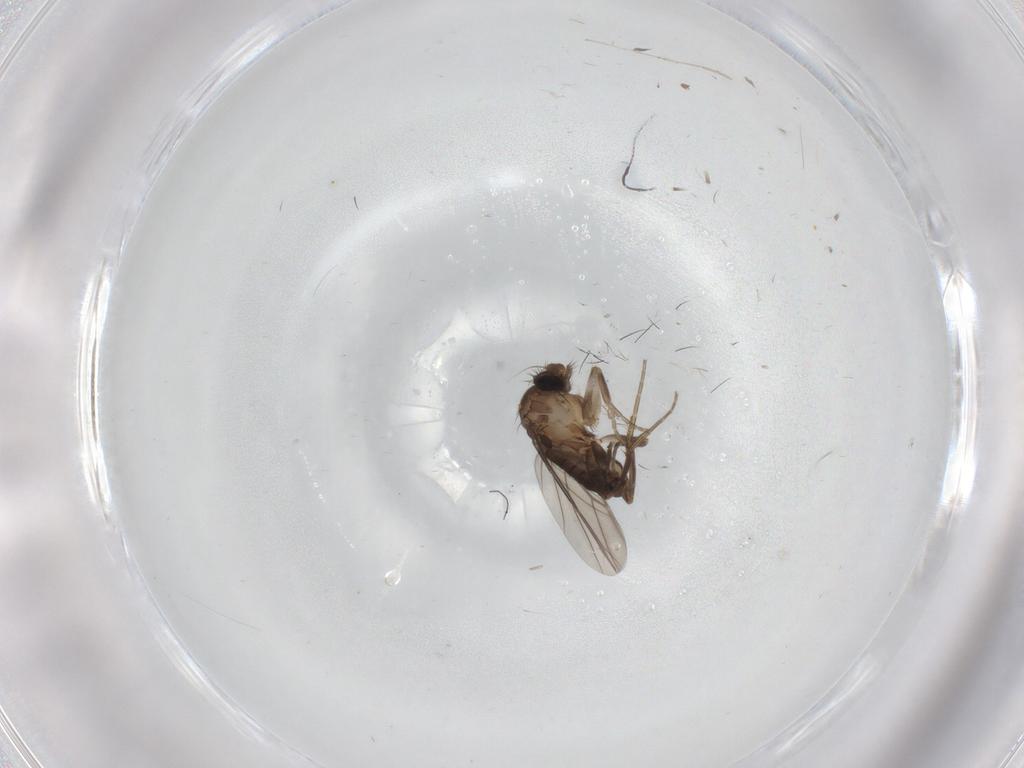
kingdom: Animalia
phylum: Arthropoda
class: Insecta
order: Diptera
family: Phoridae
